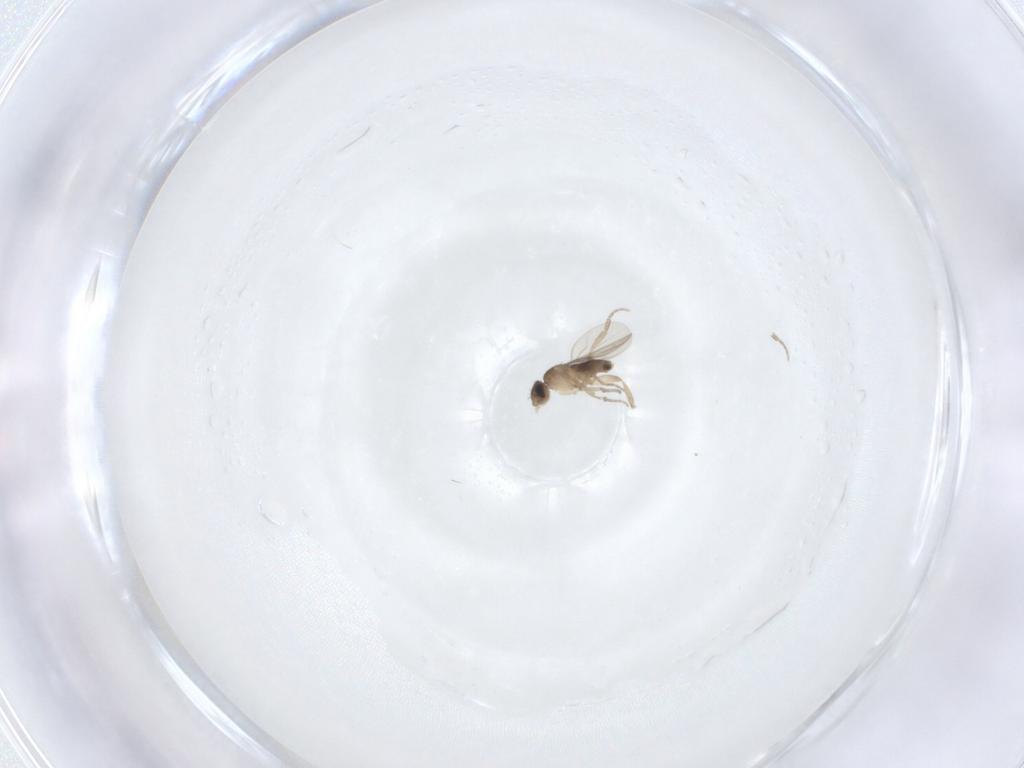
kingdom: Animalia
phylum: Arthropoda
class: Insecta
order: Diptera
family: Phoridae
